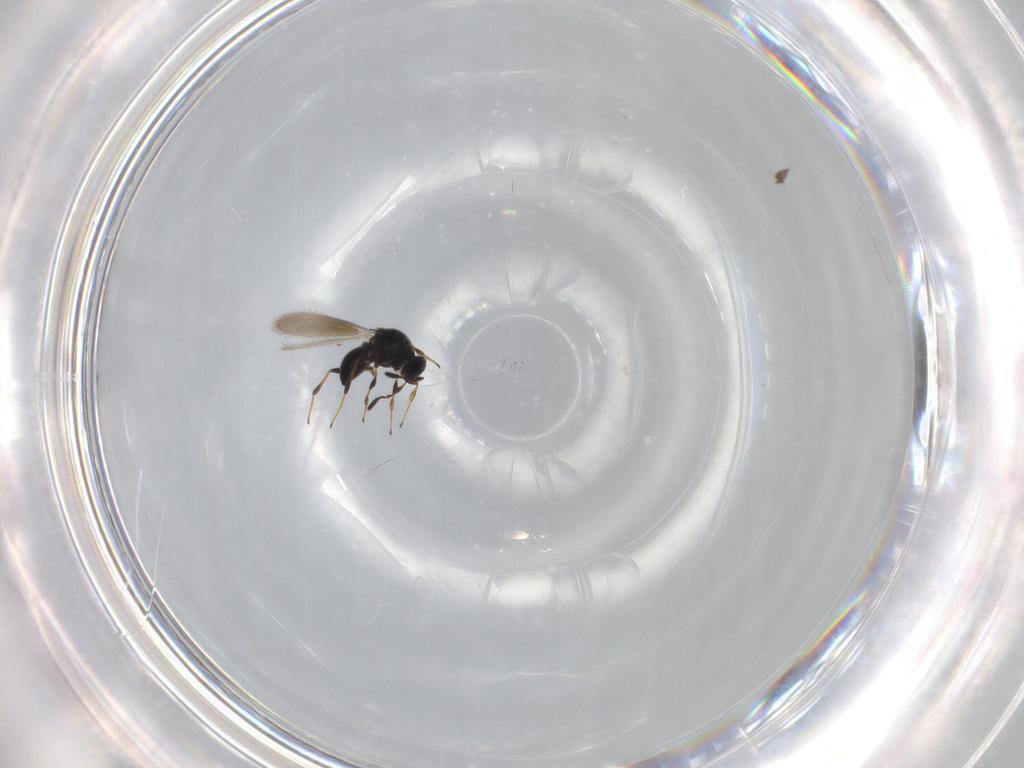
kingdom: Animalia
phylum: Arthropoda
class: Insecta
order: Hymenoptera
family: Platygastridae
